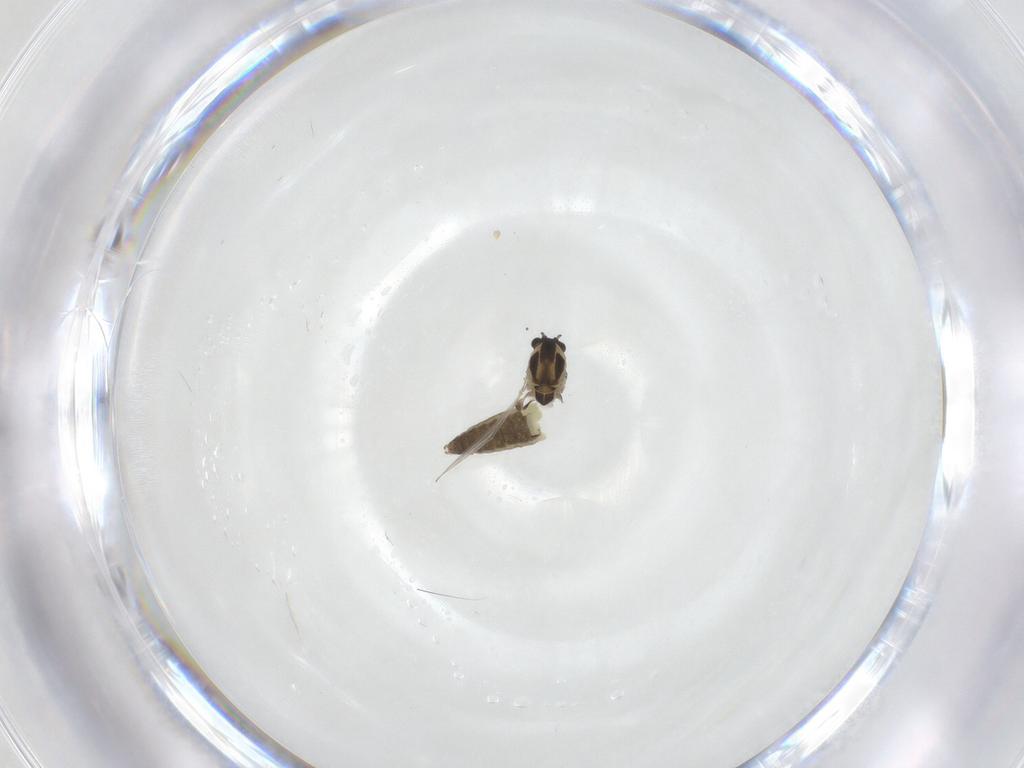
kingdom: Animalia
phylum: Arthropoda
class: Insecta
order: Diptera
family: Chironomidae
